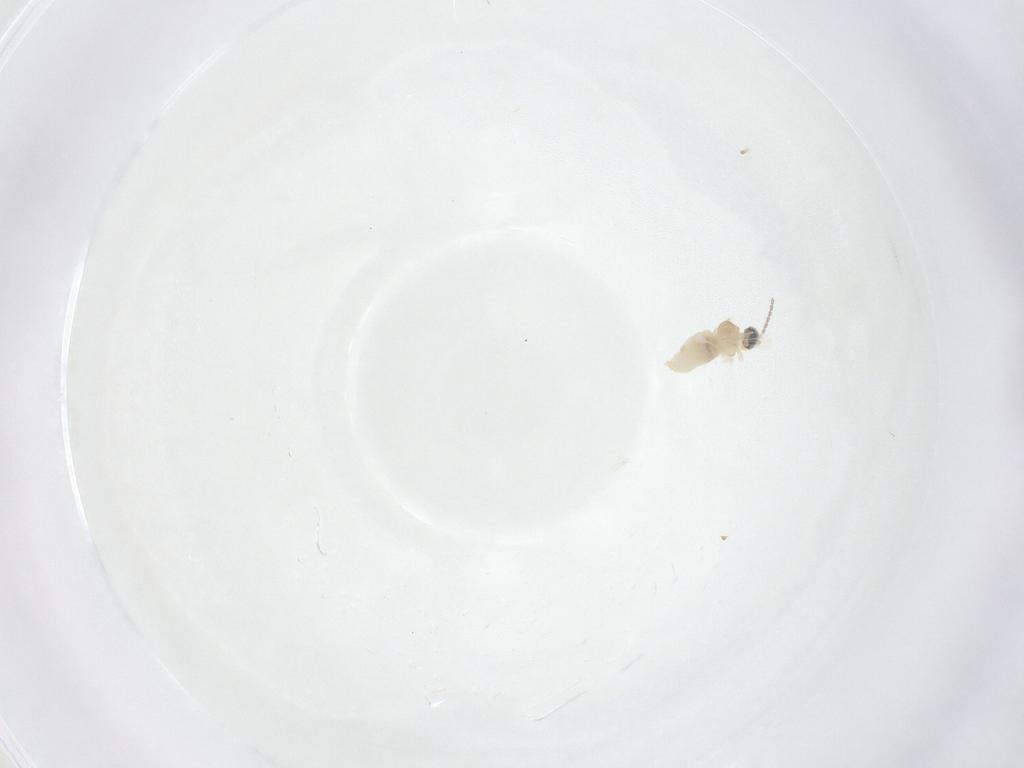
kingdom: Animalia
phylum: Arthropoda
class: Insecta
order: Diptera
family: Cecidomyiidae
